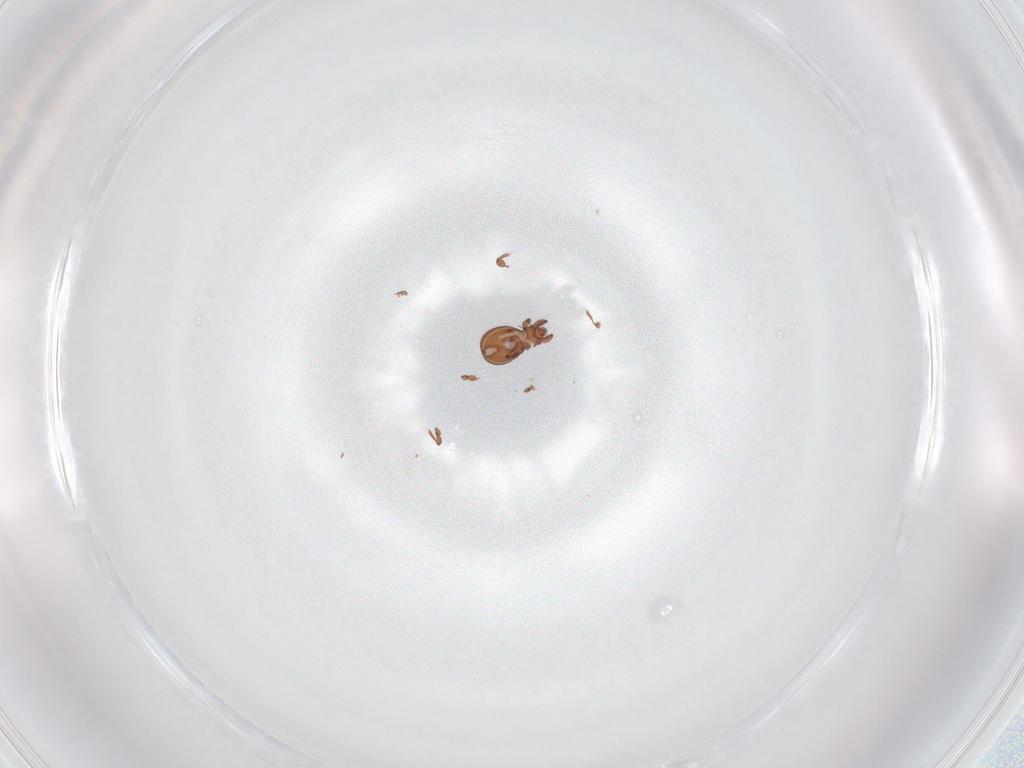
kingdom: Animalia
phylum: Arthropoda
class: Arachnida
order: Sarcoptiformes
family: Eremaeidae
